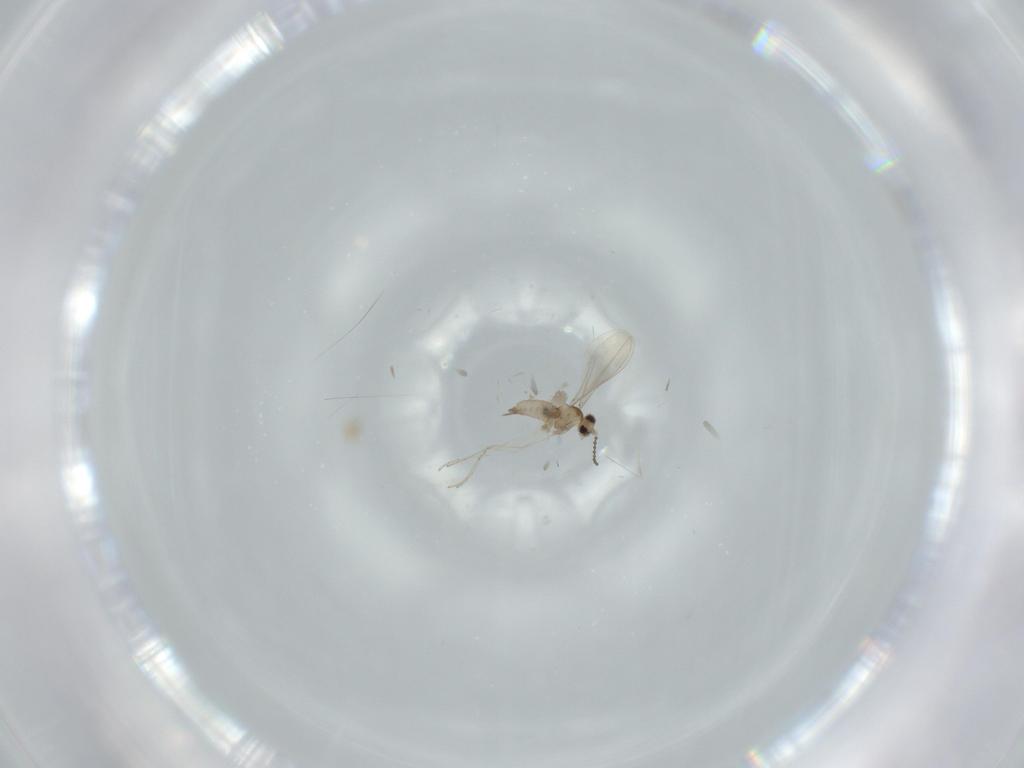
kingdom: Animalia
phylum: Arthropoda
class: Insecta
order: Diptera
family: Cecidomyiidae
